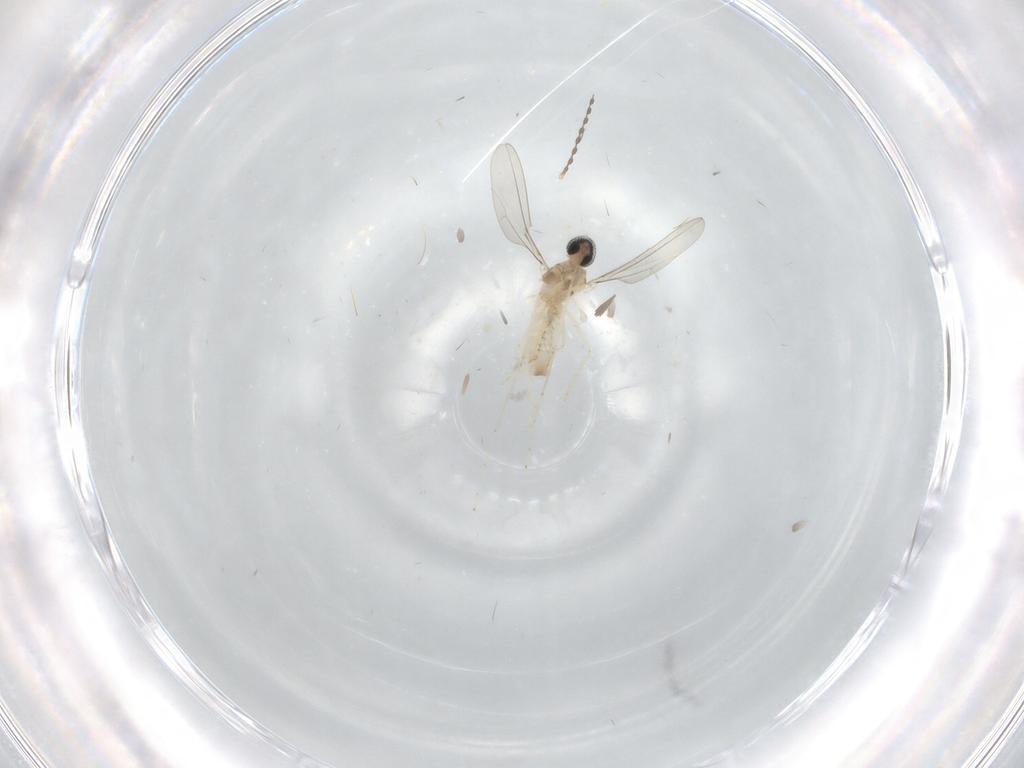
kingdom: Animalia
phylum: Arthropoda
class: Insecta
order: Diptera
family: Cecidomyiidae
